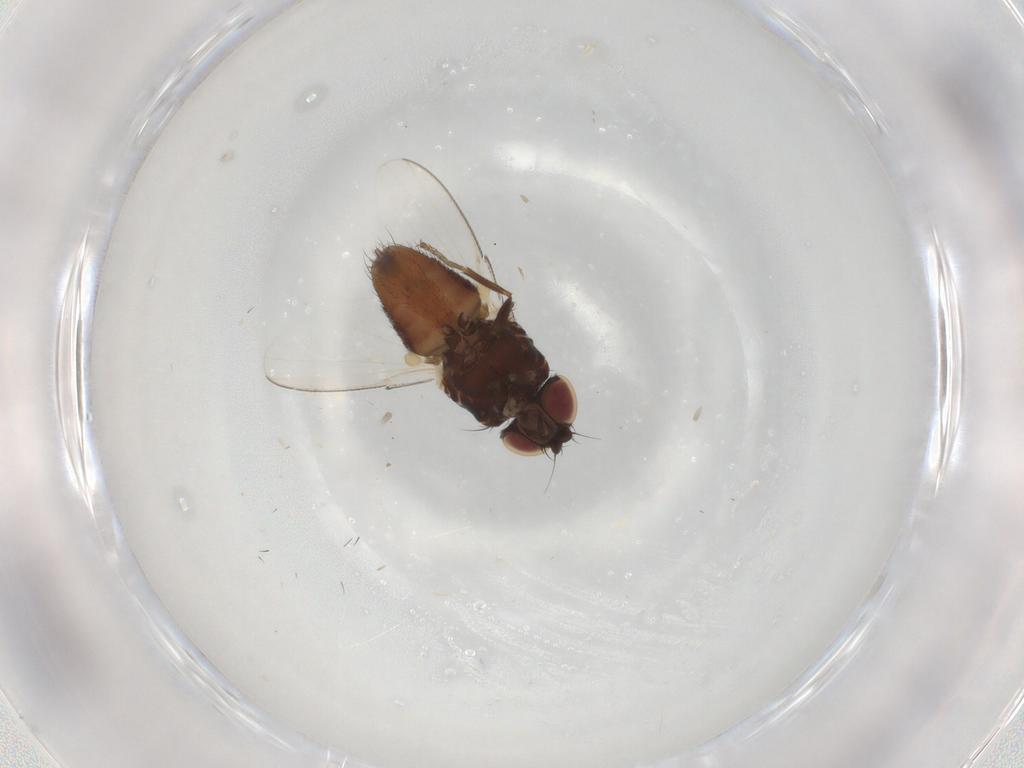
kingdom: Animalia
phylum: Arthropoda
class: Insecta
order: Diptera
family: Milichiidae
